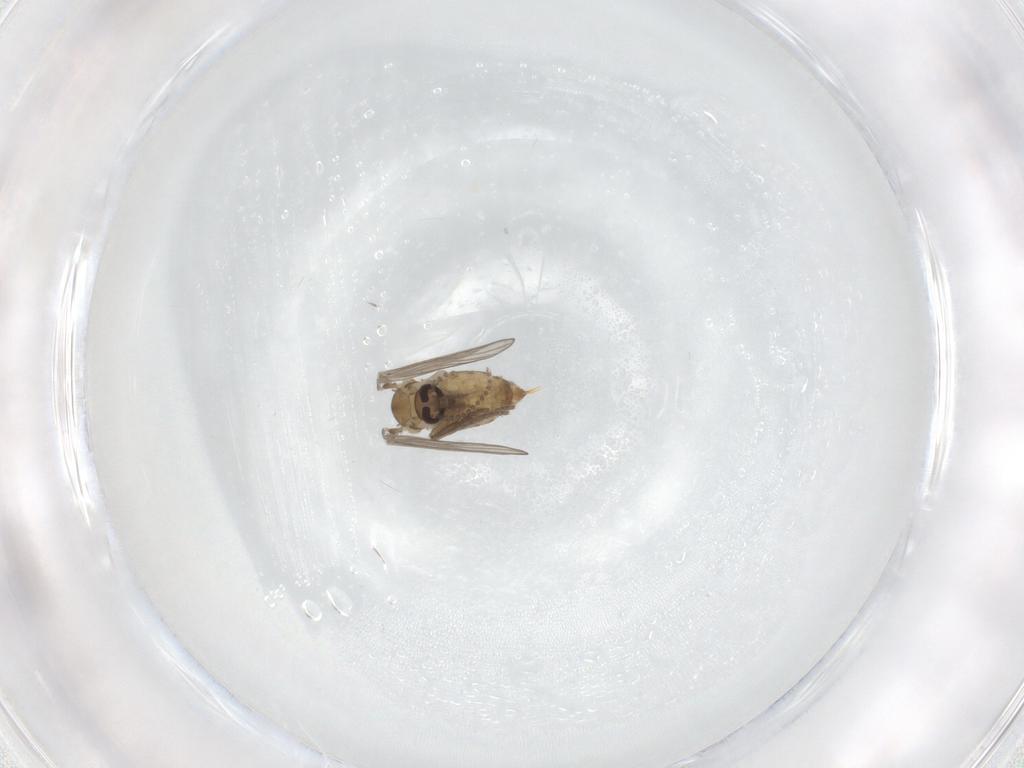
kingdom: Animalia
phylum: Arthropoda
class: Insecta
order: Diptera
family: Psychodidae
